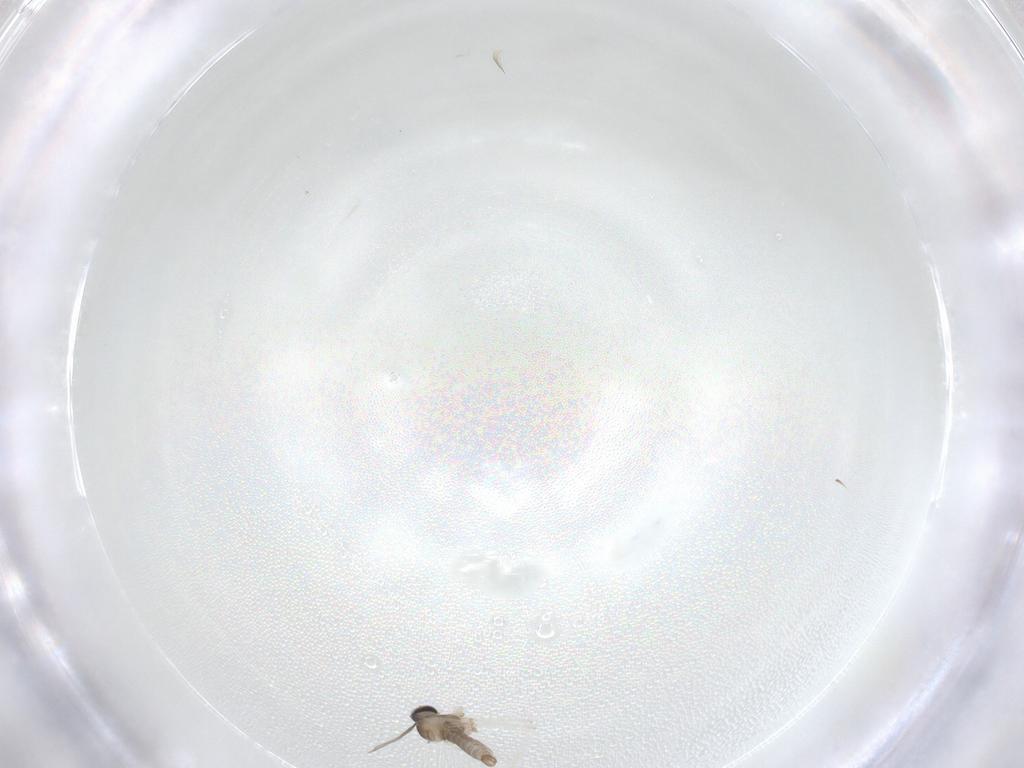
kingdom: Animalia
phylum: Arthropoda
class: Insecta
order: Diptera
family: Cecidomyiidae
